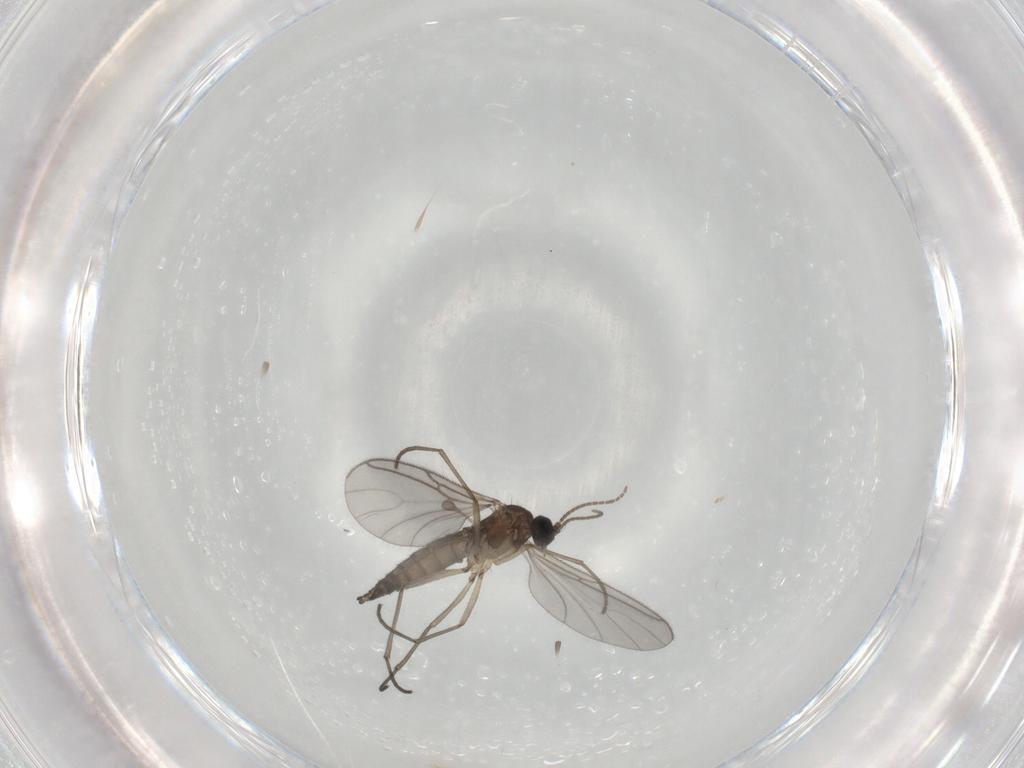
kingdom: Animalia
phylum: Arthropoda
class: Insecta
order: Diptera
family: Sciaridae
